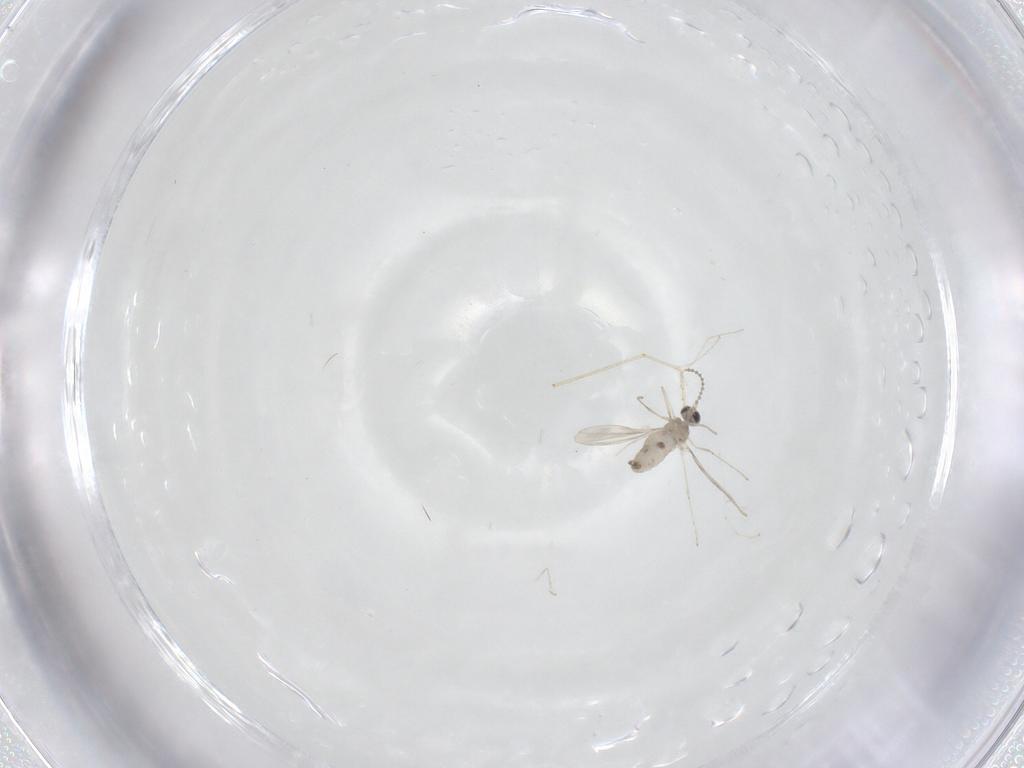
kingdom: Animalia
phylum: Arthropoda
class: Insecta
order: Diptera
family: Cecidomyiidae
